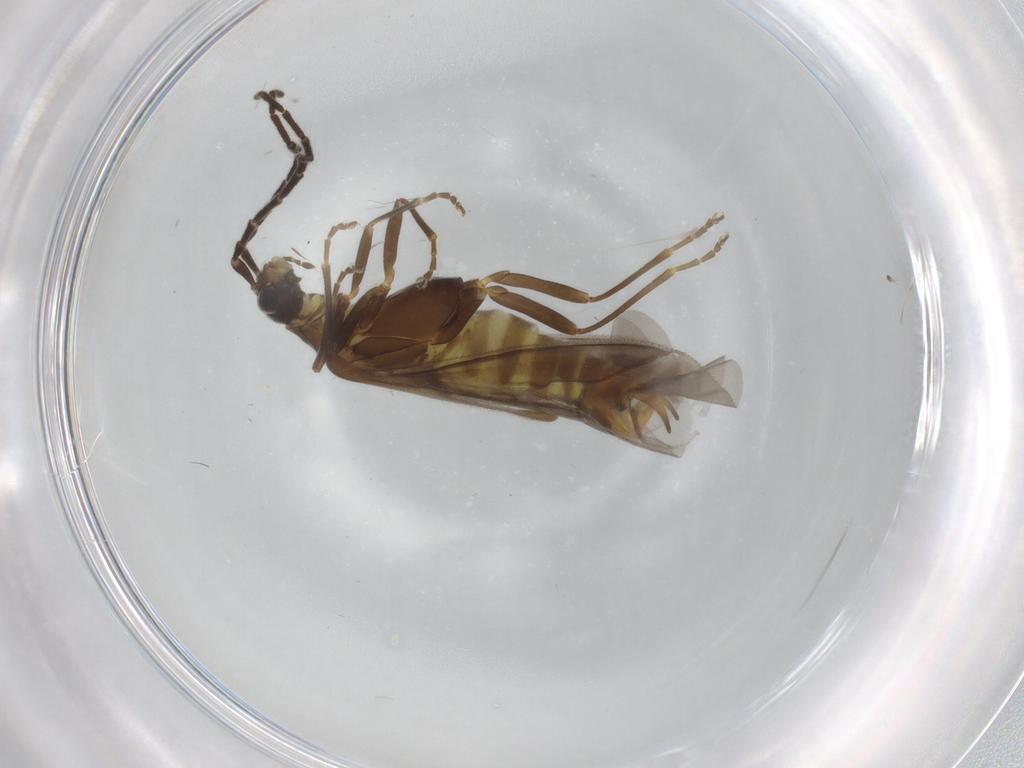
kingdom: Animalia
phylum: Arthropoda
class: Insecta
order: Coleoptera
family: Cantharidae
